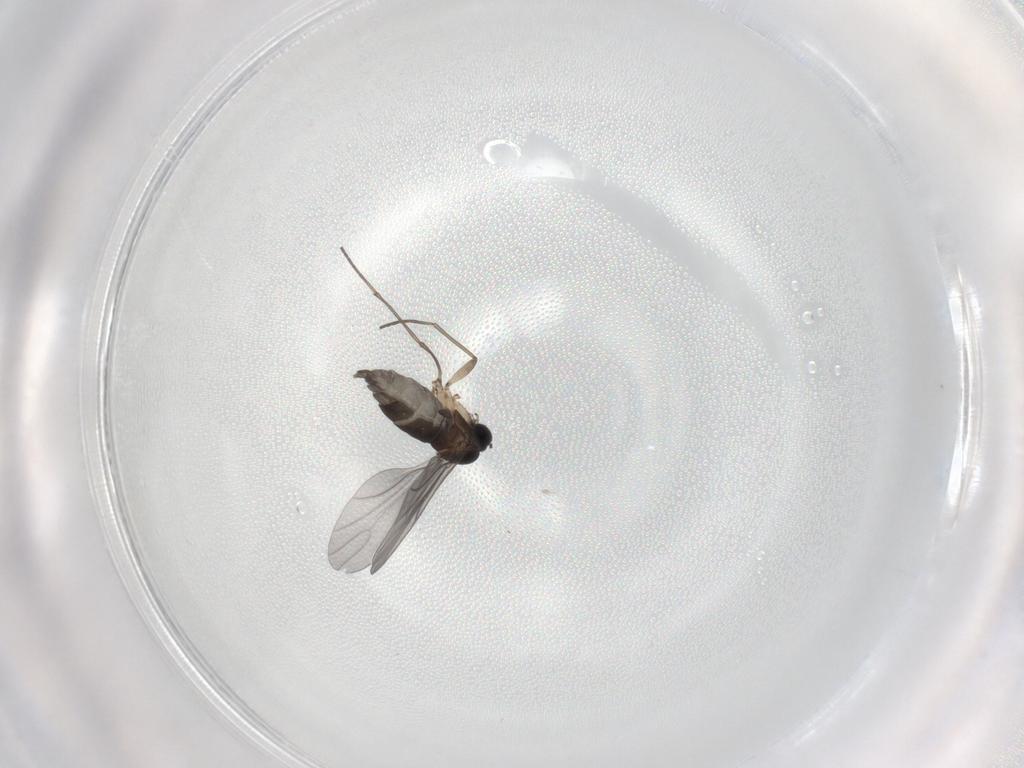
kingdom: Animalia
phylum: Arthropoda
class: Insecta
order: Diptera
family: Sciaridae
